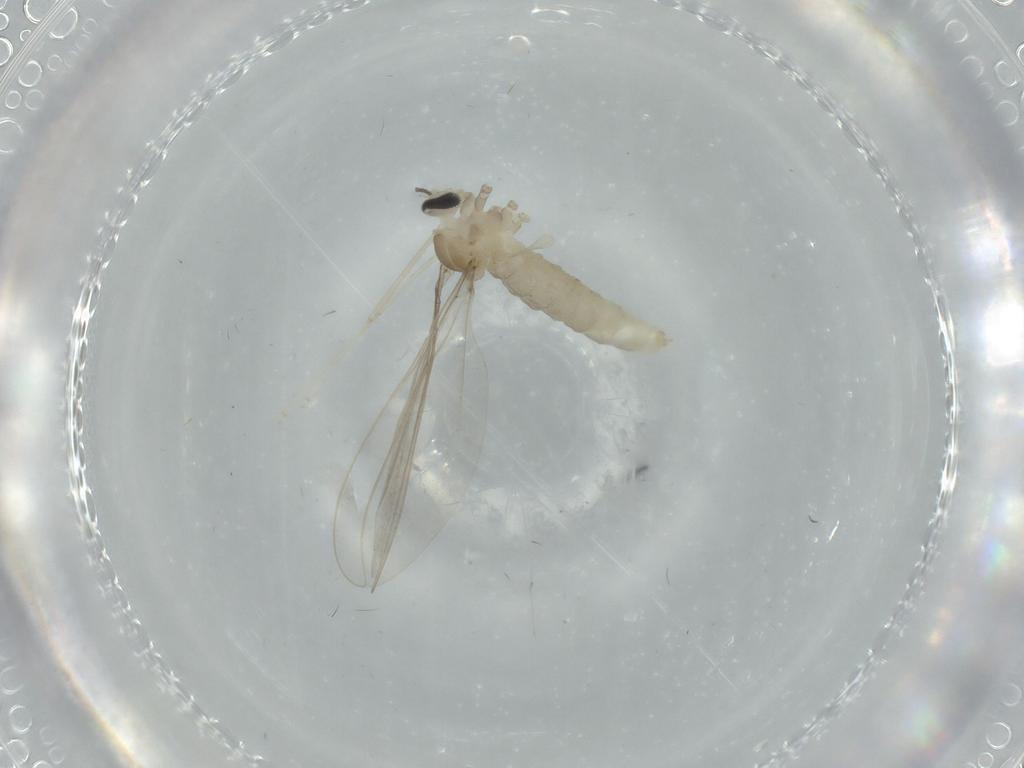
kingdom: Animalia
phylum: Arthropoda
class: Insecta
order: Diptera
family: Cecidomyiidae
